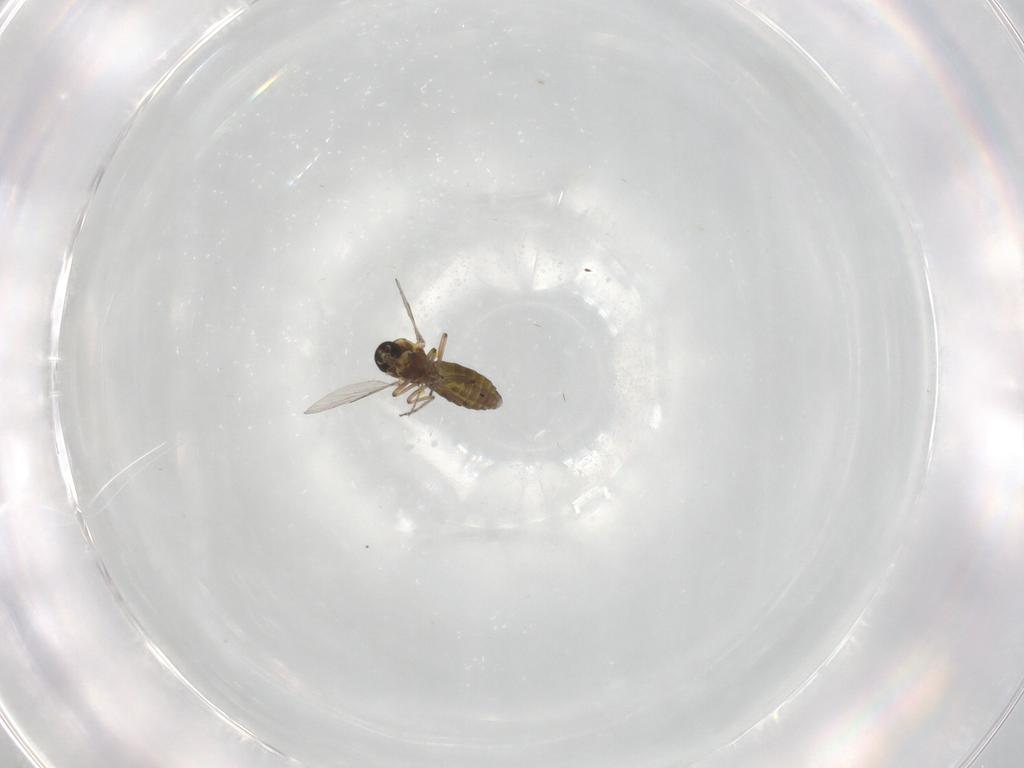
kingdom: Animalia
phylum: Arthropoda
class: Insecta
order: Diptera
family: Ceratopogonidae
